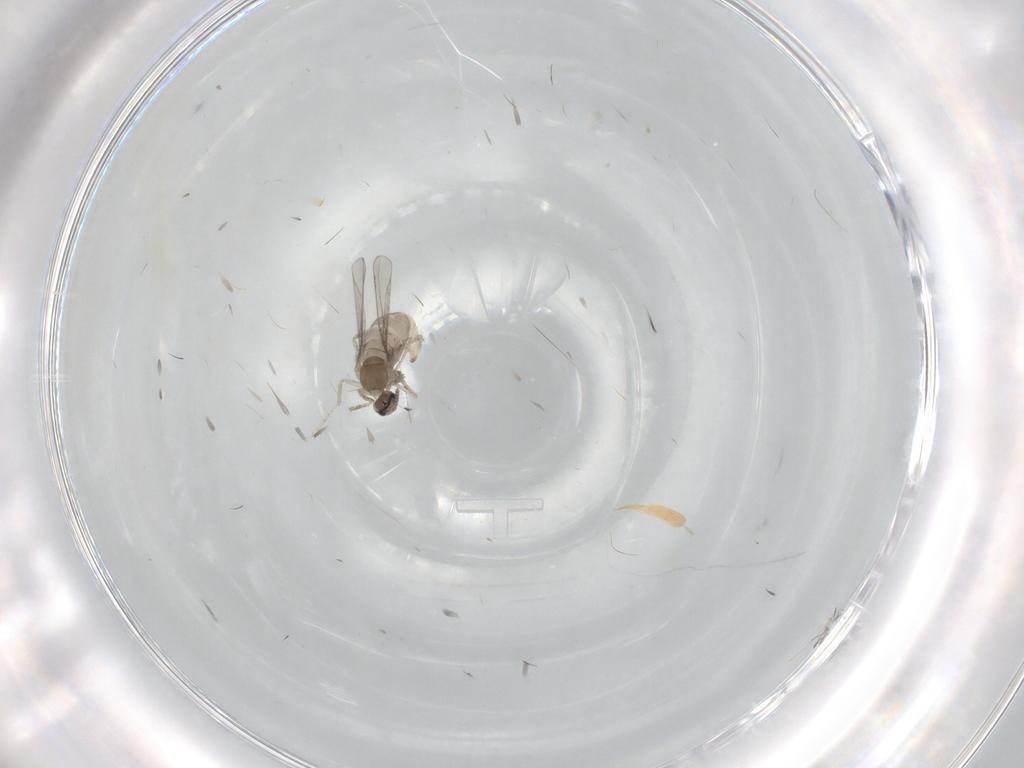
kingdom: Animalia
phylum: Arthropoda
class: Insecta
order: Diptera
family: Cecidomyiidae
